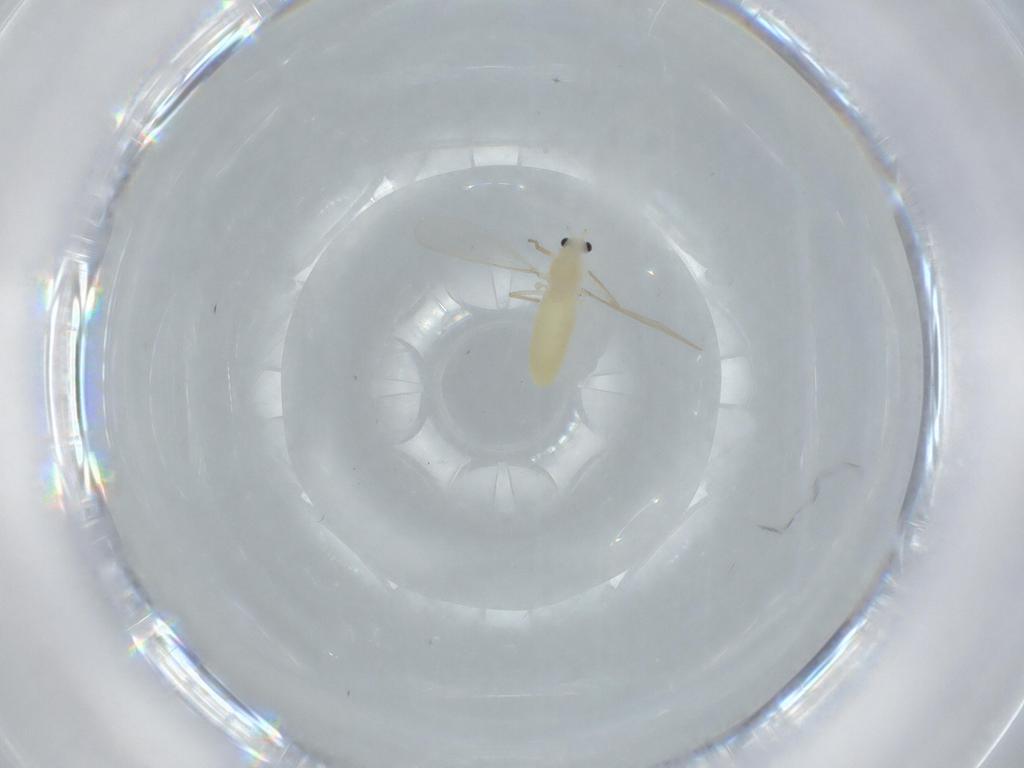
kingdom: Animalia
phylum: Arthropoda
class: Insecta
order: Diptera
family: Chironomidae
